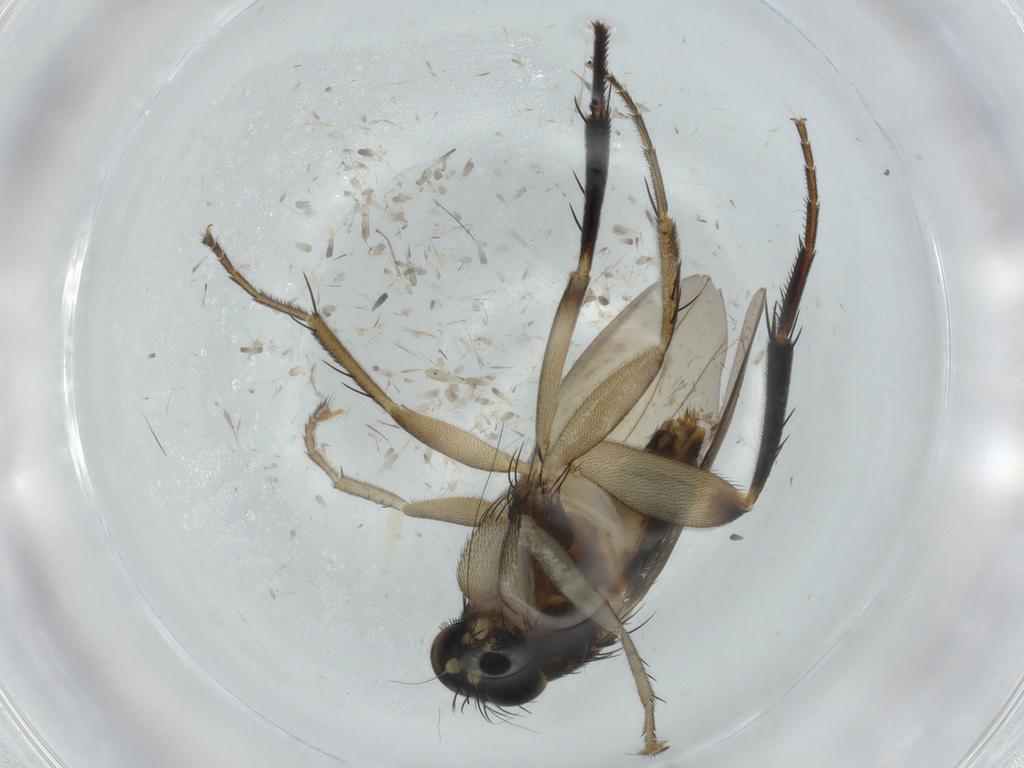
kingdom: Animalia
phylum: Arthropoda
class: Insecta
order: Diptera
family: Phoridae
